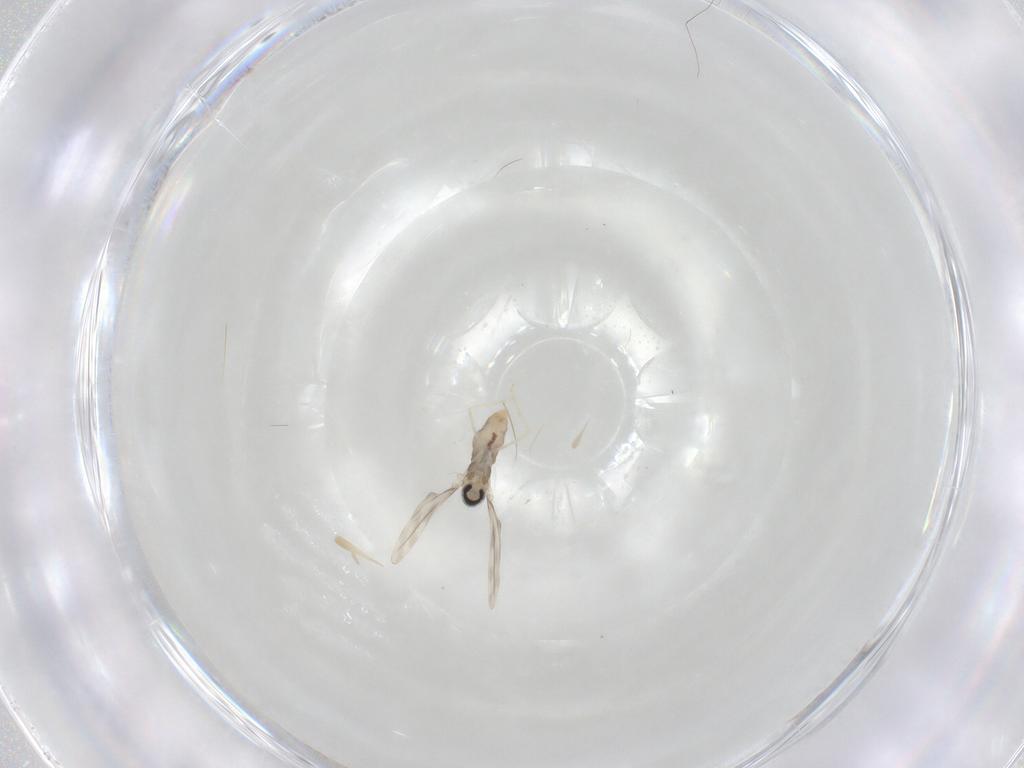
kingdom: Animalia
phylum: Arthropoda
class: Insecta
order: Diptera
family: Cecidomyiidae
